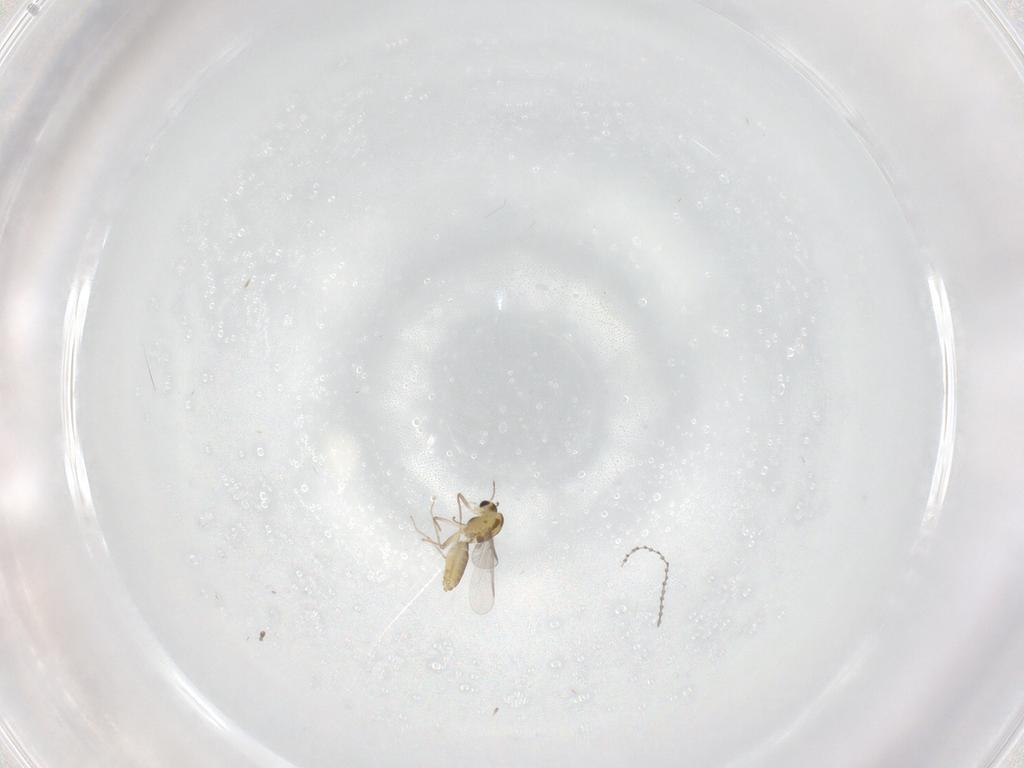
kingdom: Animalia
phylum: Arthropoda
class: Insecta
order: Diptera
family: Chironomidae
